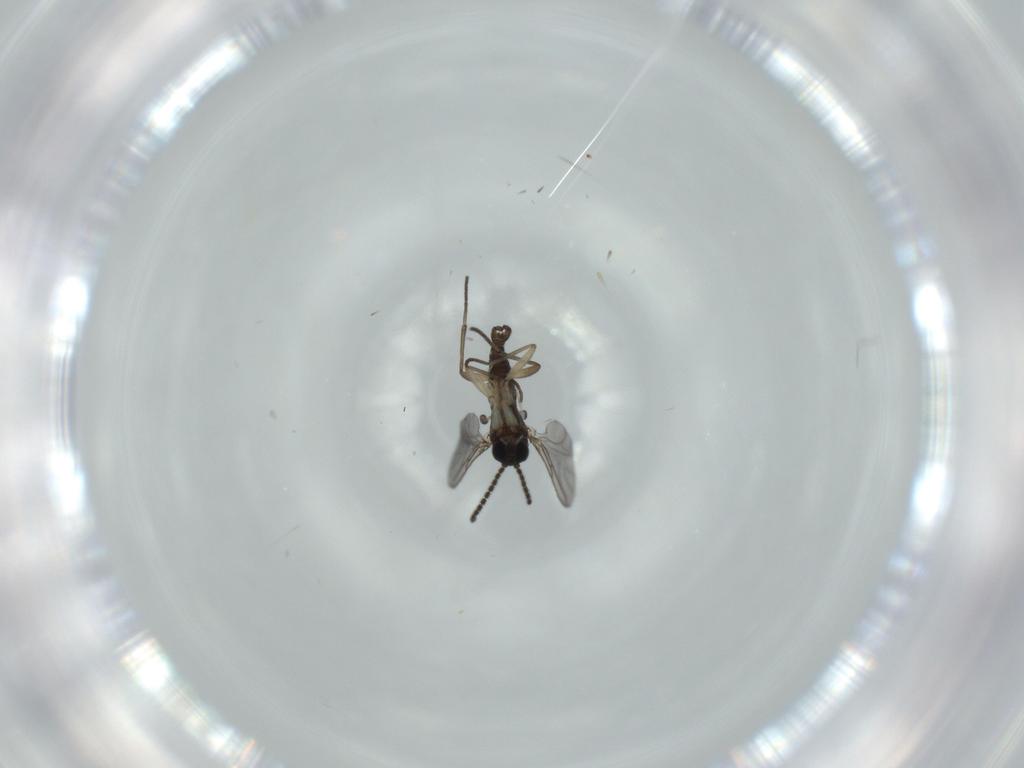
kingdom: Animalia
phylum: Arthropoda
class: Insecta
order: Diptera
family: Sciaridae
